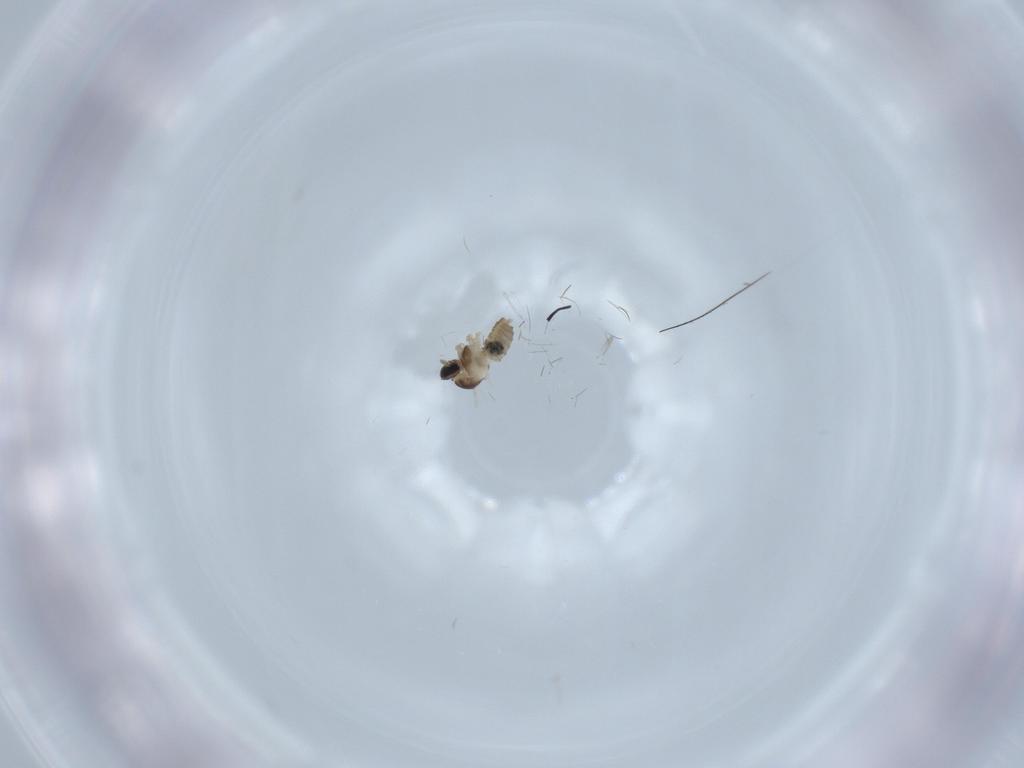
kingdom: Animalia
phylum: Arthropoda
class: Insecta
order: Diptera
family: Cecidomyiidae
